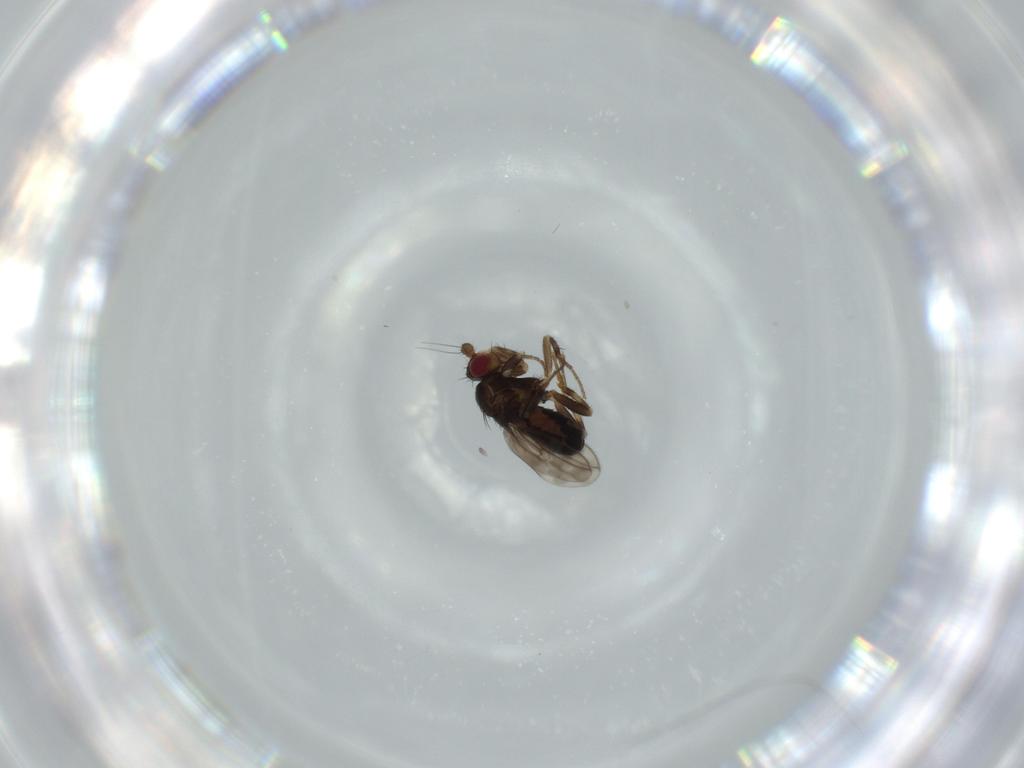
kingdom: Animalia
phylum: Arthropoda
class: Insecta
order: Diptera
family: Sphaeroceridae
